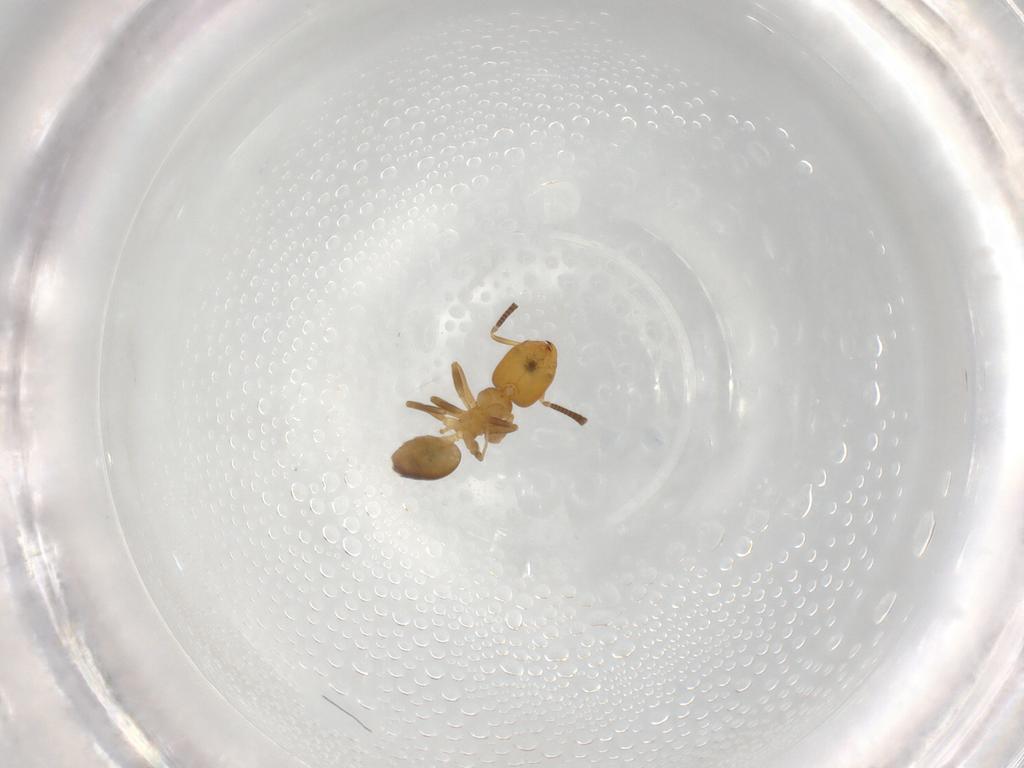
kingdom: Animalia
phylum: Arthropoda
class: Insecta
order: Hymenoptera
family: Formicidae
